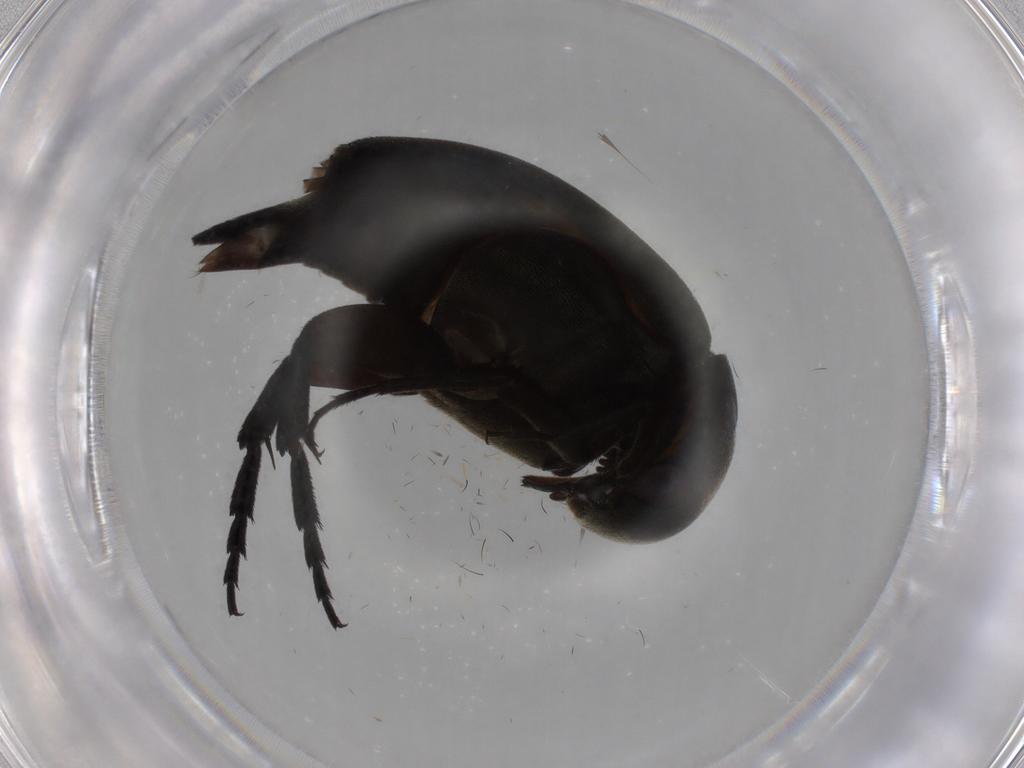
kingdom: Animalia
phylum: Arthropoda
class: Insecta
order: Coleoptera
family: Mordellidae
